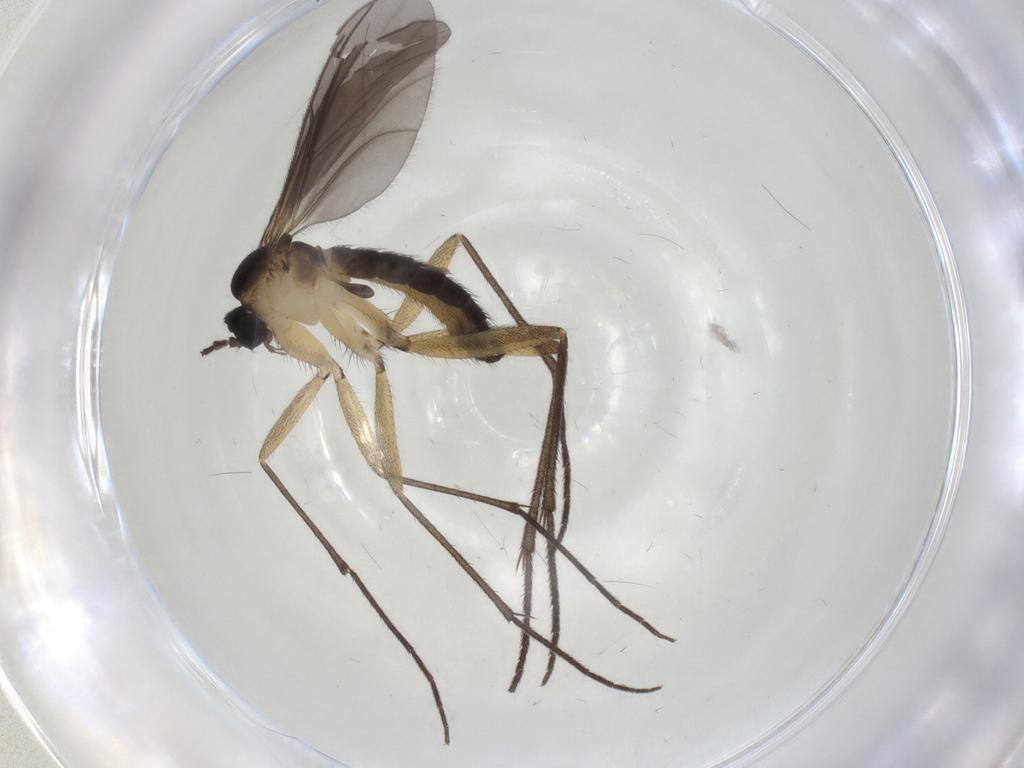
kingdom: Animalia
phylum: Arthropoda
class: Insecta
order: Diptera
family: Sciaridae
